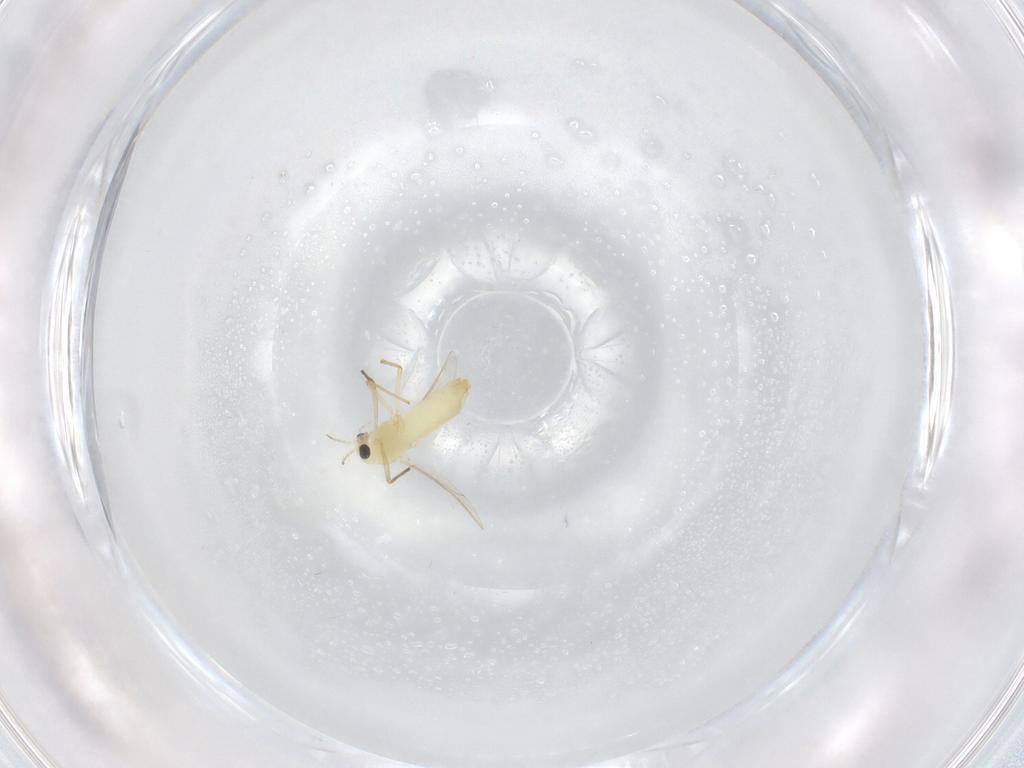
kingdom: Animalia
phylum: Arthropoda
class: Insecta
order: Diptera
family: Chironomidae
